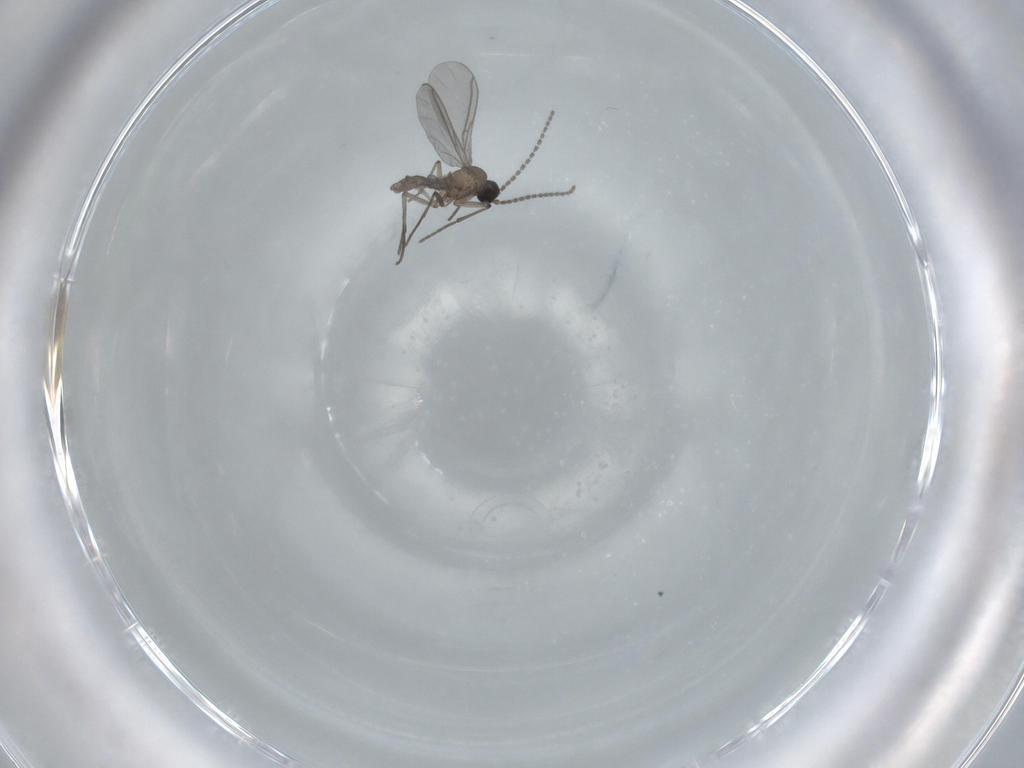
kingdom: Animalia
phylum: Arthropoda
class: Insecta
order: Diptera
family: Sciaridae
